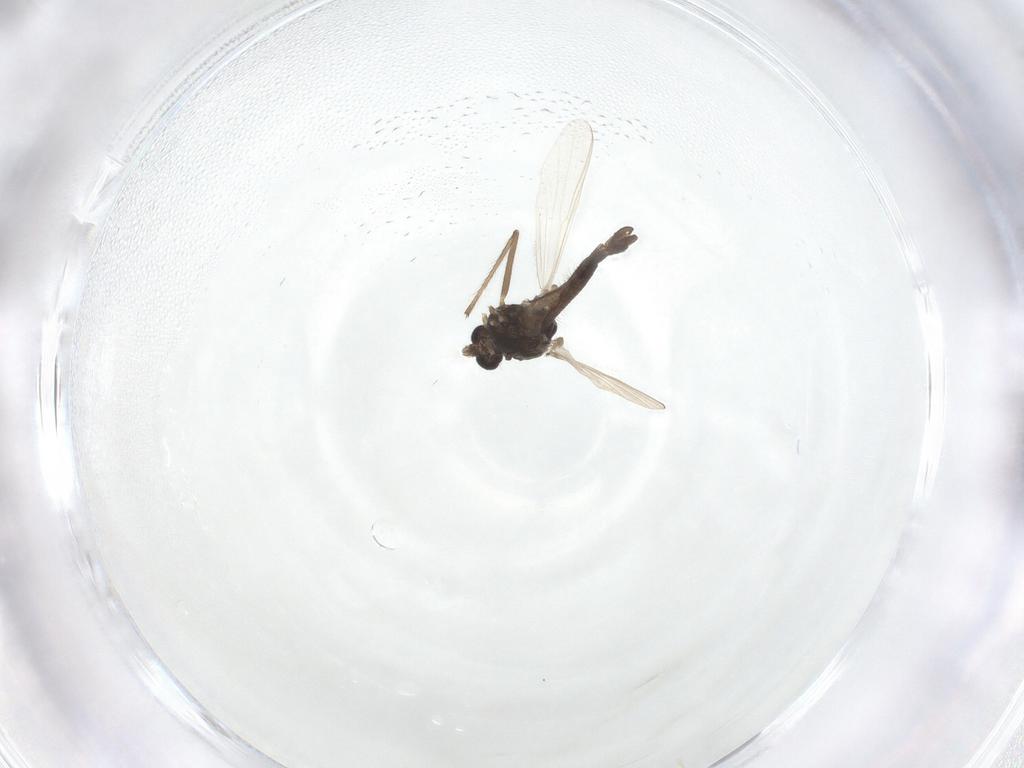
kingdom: Animalia
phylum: Arthropoda
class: Insecta
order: Diptera
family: Chironomidae
